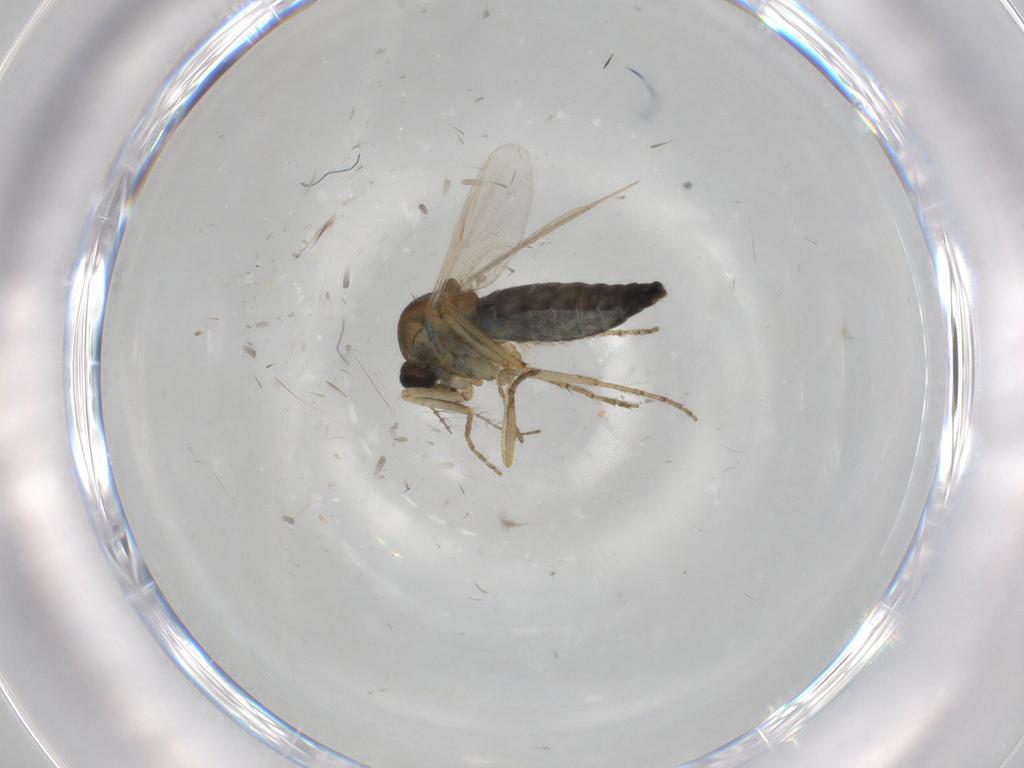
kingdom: Animalia
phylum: Arthropoda
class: Insecta
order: Diptera
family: Ceratopogonidae
